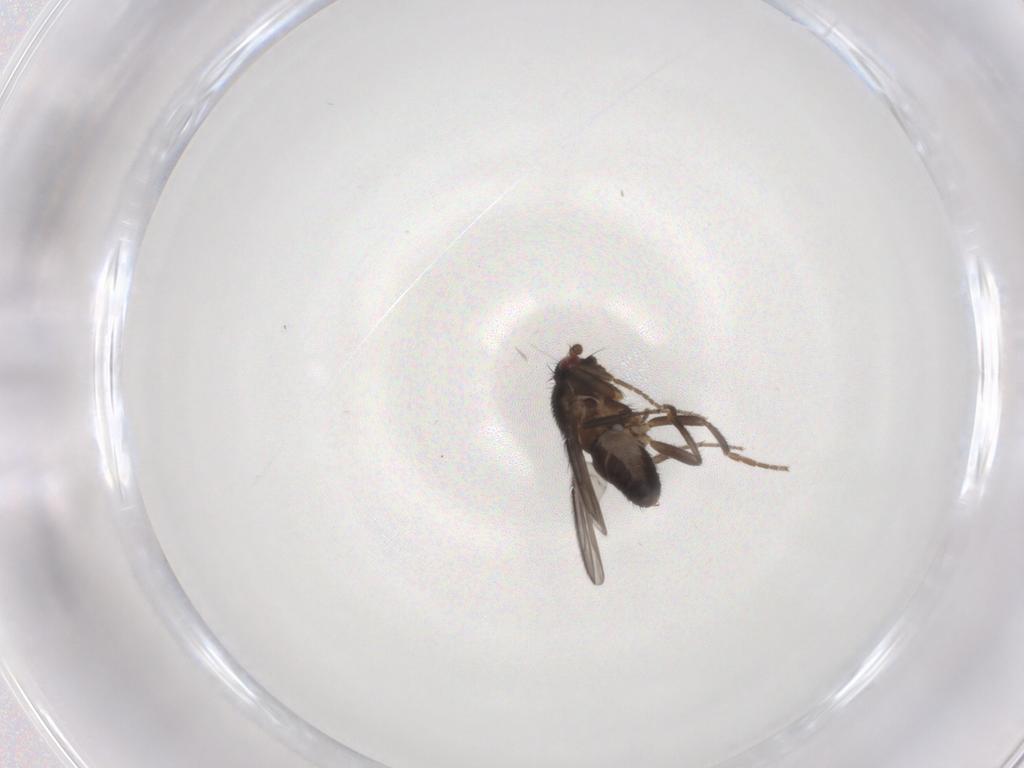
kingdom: Animalia
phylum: Arthropoda
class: Insecta
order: Diptera
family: Sphaeroceridae
